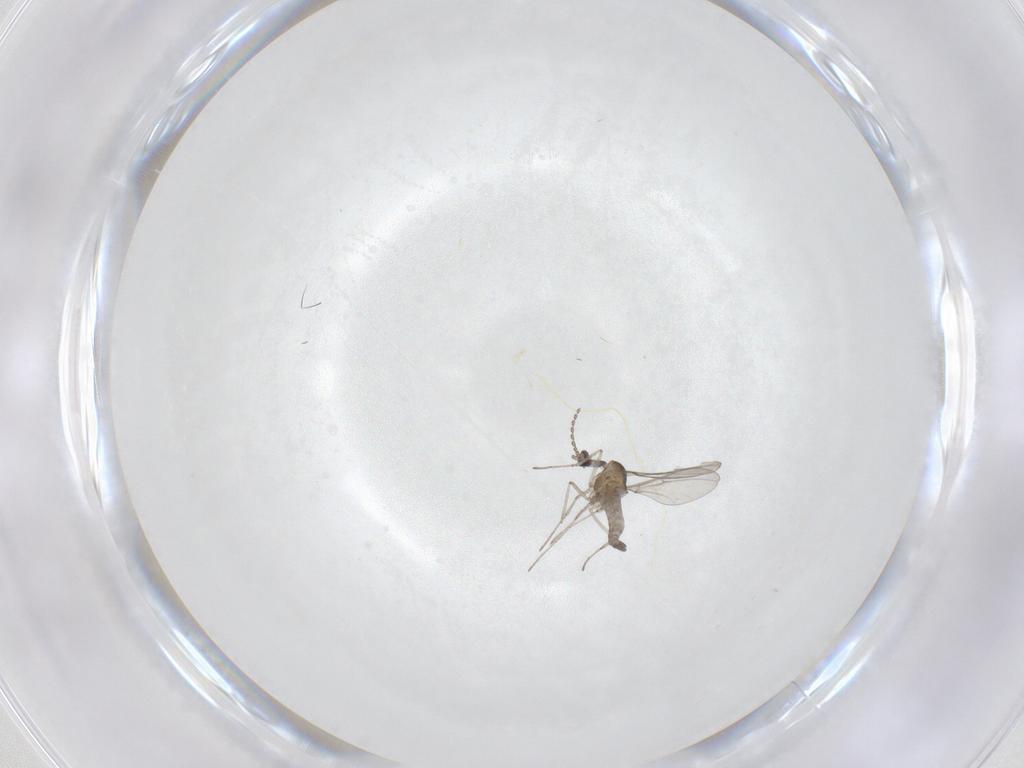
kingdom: Animalia
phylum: Arthropoda
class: Insecta
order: Diptera
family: Cecidomyiidae
